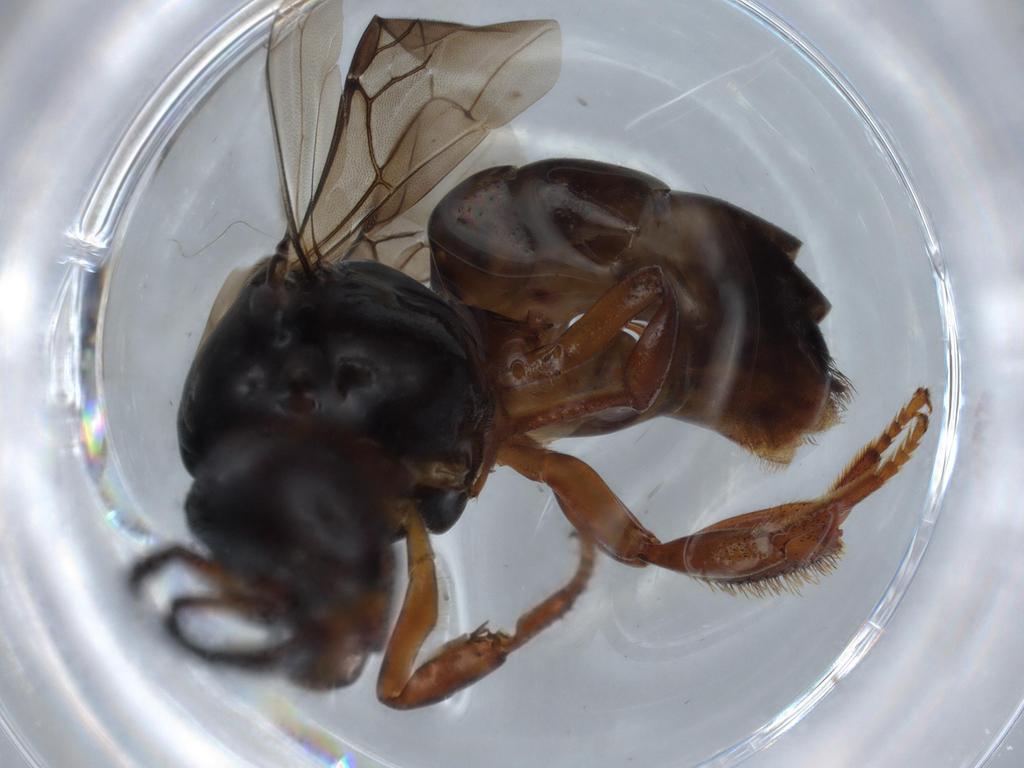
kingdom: Animalia
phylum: Arthropoda
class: Insecta
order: Hymenoptera
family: Apidae
